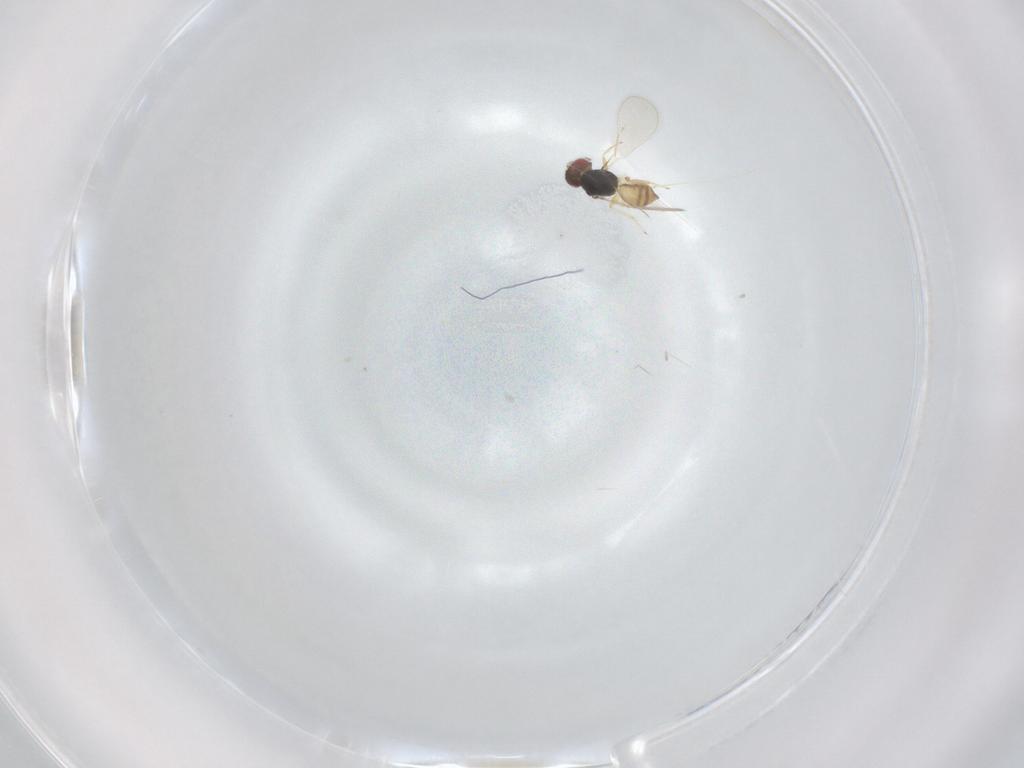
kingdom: Animalia
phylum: Arthropoda
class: Insecta
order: Hymenoptera
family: Eulophidae
